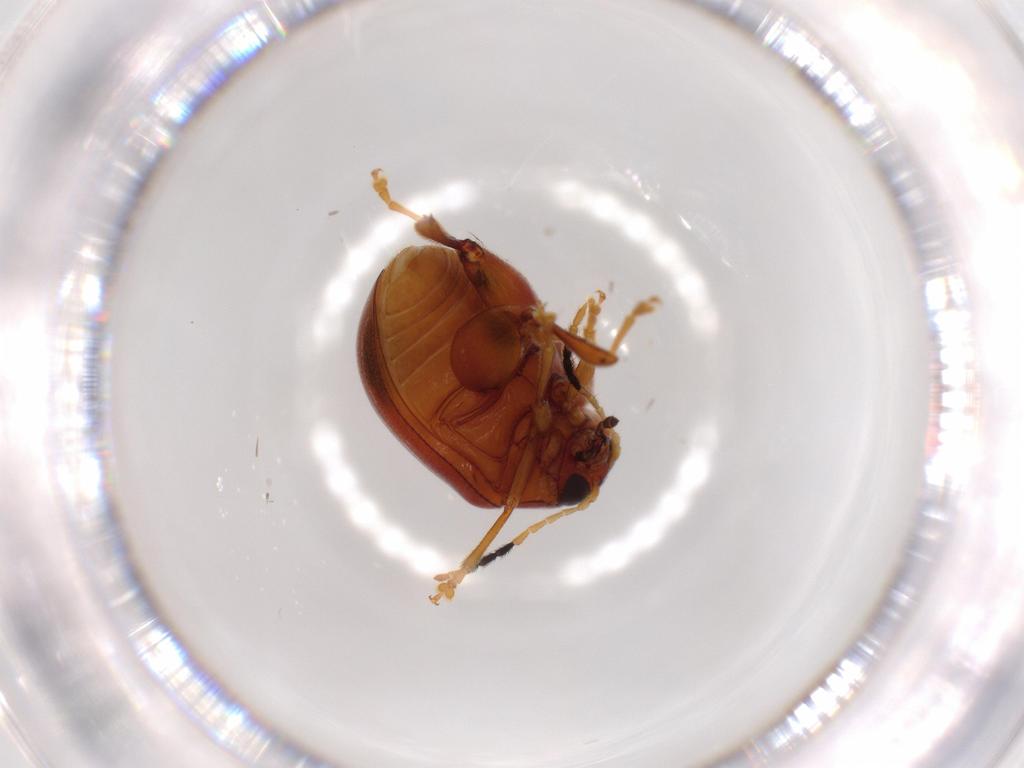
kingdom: Animalia
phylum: Arthropoda
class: Insecta
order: Coleoptera
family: Chrysomelidae
